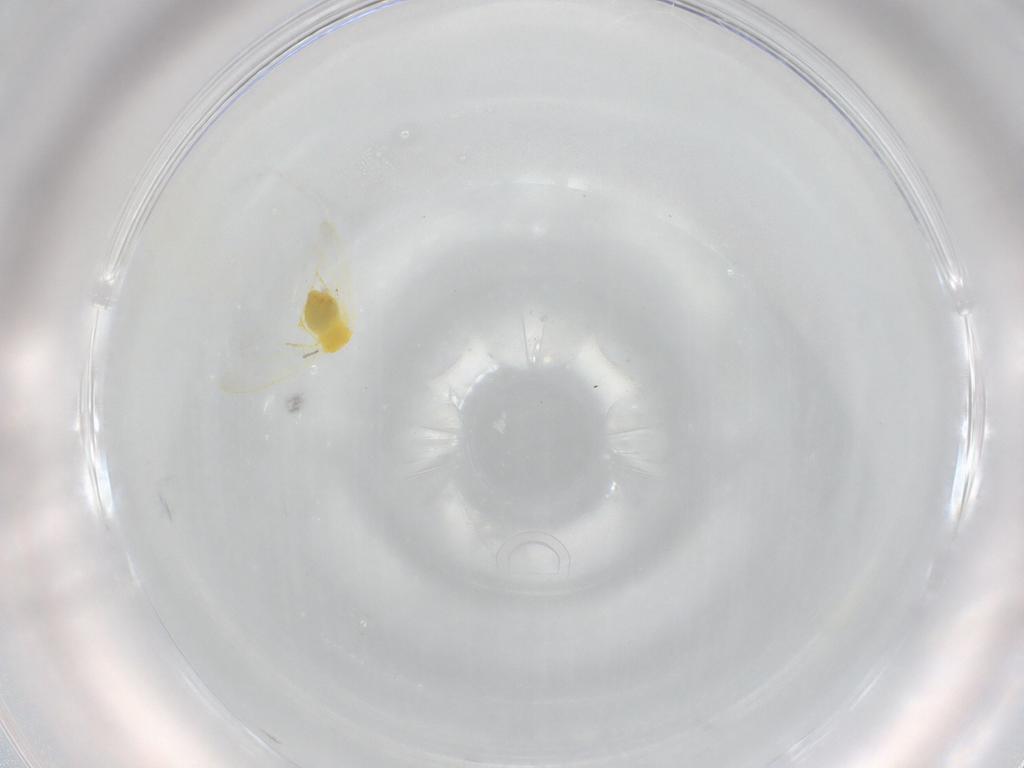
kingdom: Animalia
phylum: Arthropoda
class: Insecta
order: Hemiptera
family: Aleyrodidae
